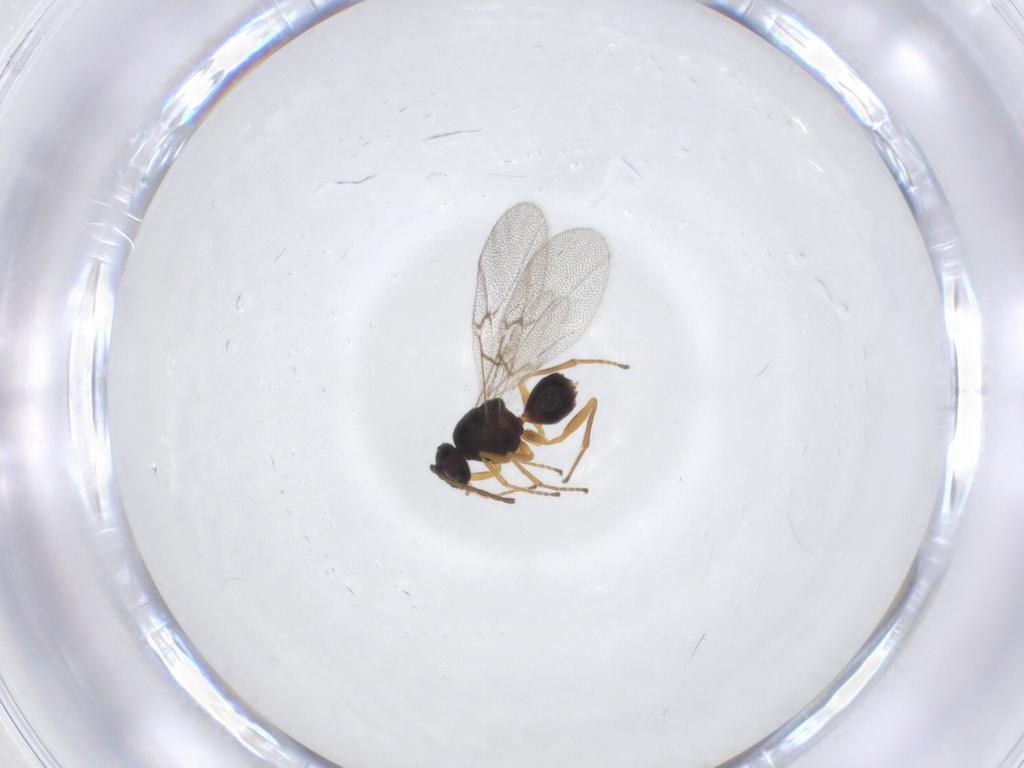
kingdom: Animalia
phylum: Arthropoda
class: Insecta
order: Hymenoptera
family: Cynipidae
